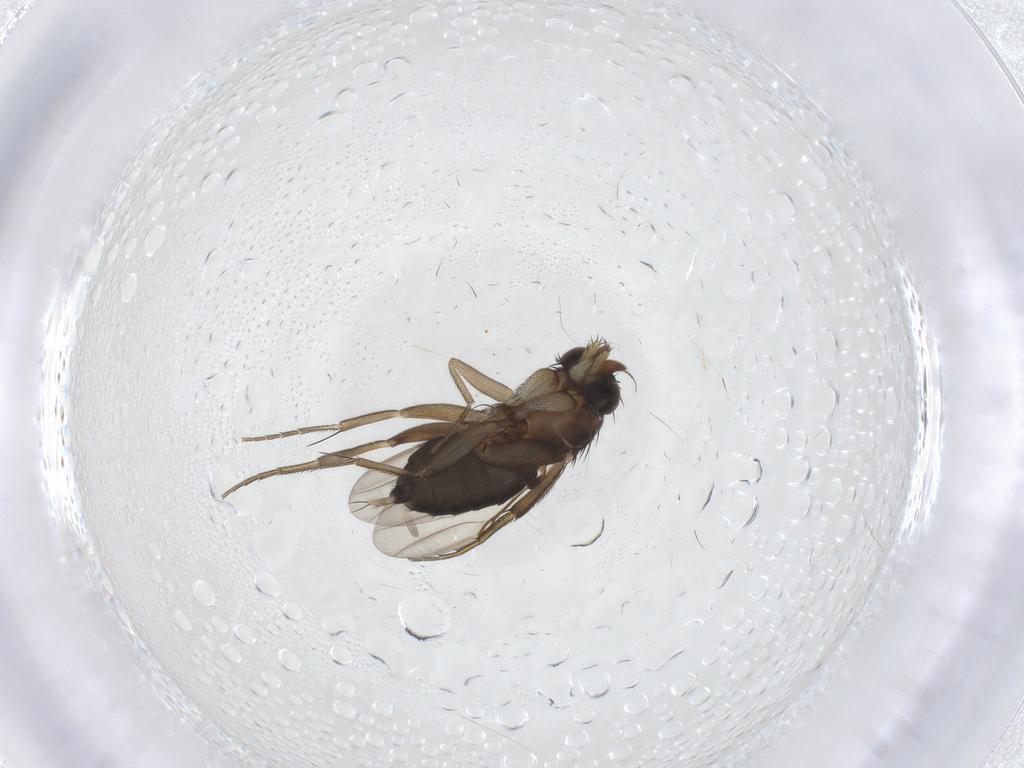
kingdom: Animalia
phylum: Arthropoda
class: Insecta
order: Diptera
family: Phoridae
